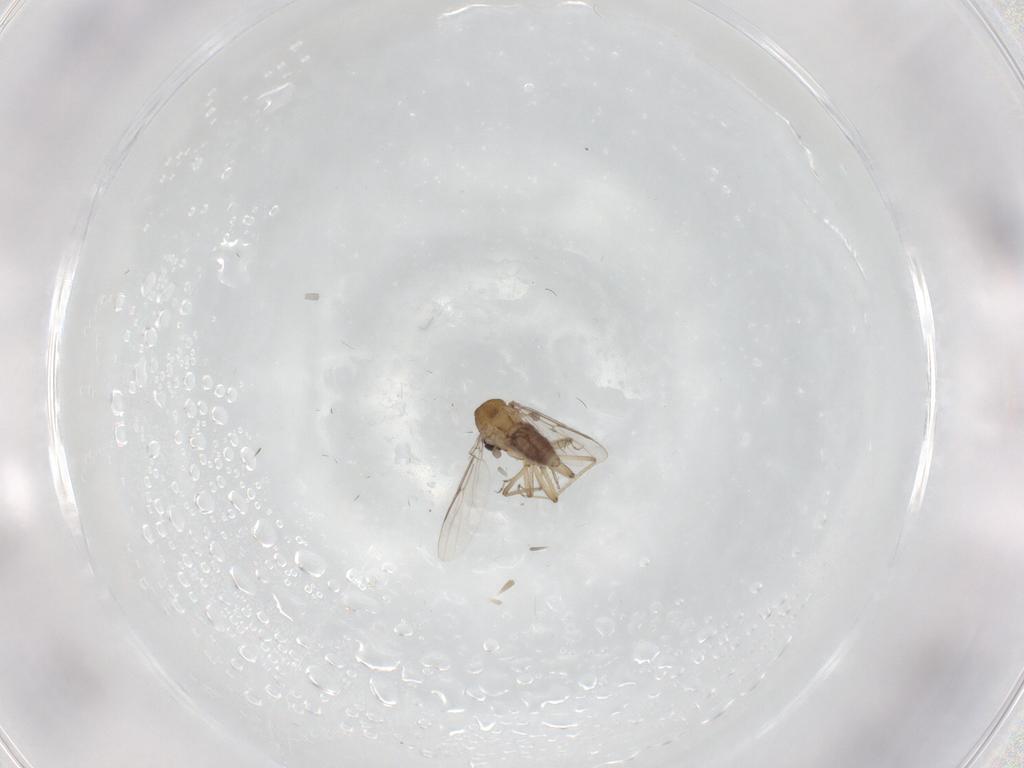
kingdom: Animalia
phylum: Arthropoda
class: Insecta
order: Diptera
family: Ceratopogonidae
